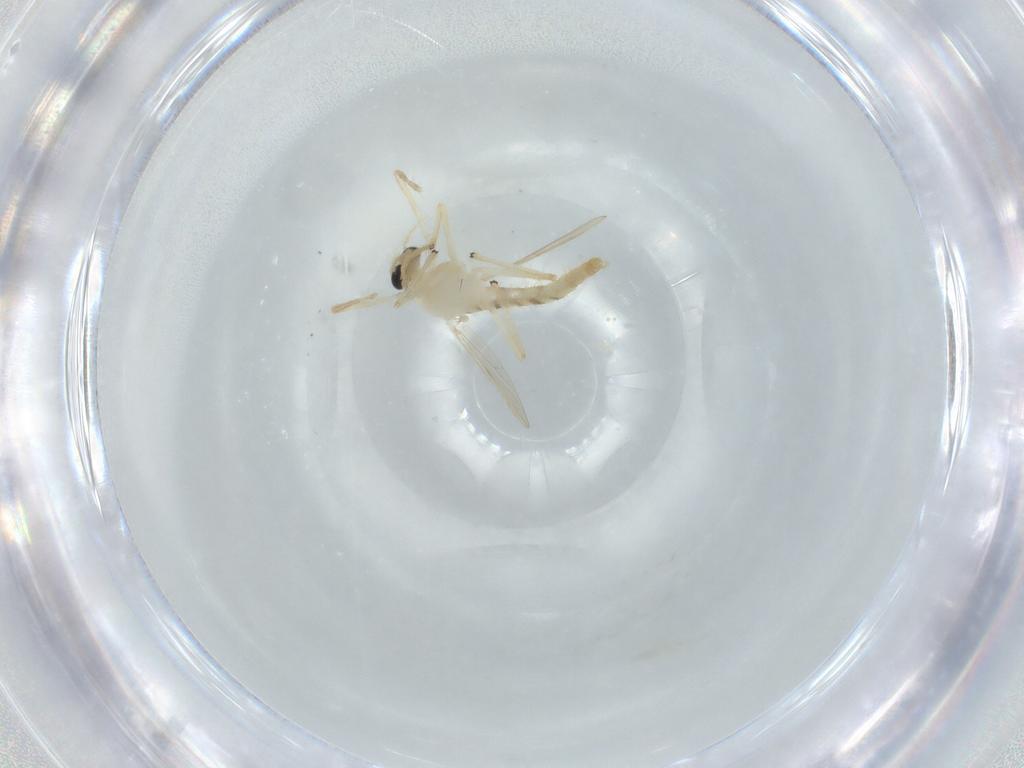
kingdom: Animalia
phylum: Arthropoda
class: Insecta
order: Diptera
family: Chironomidae
